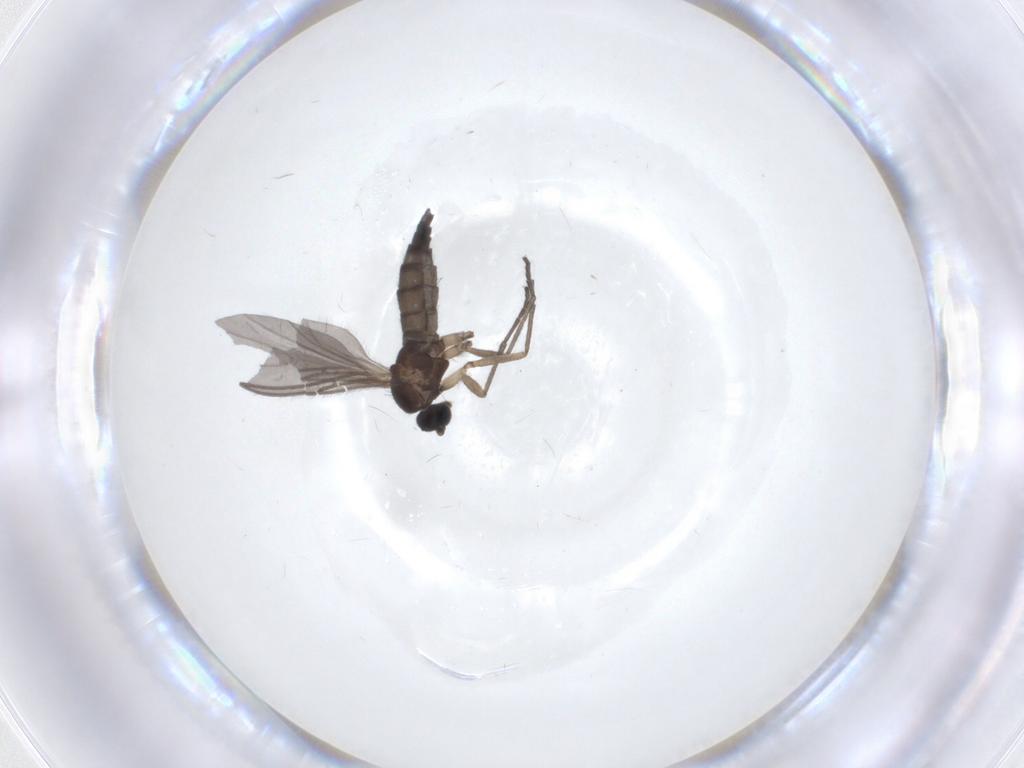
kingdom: Animalia
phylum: Arthropoda
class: Insecta
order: Diptera
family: Sciaridae
